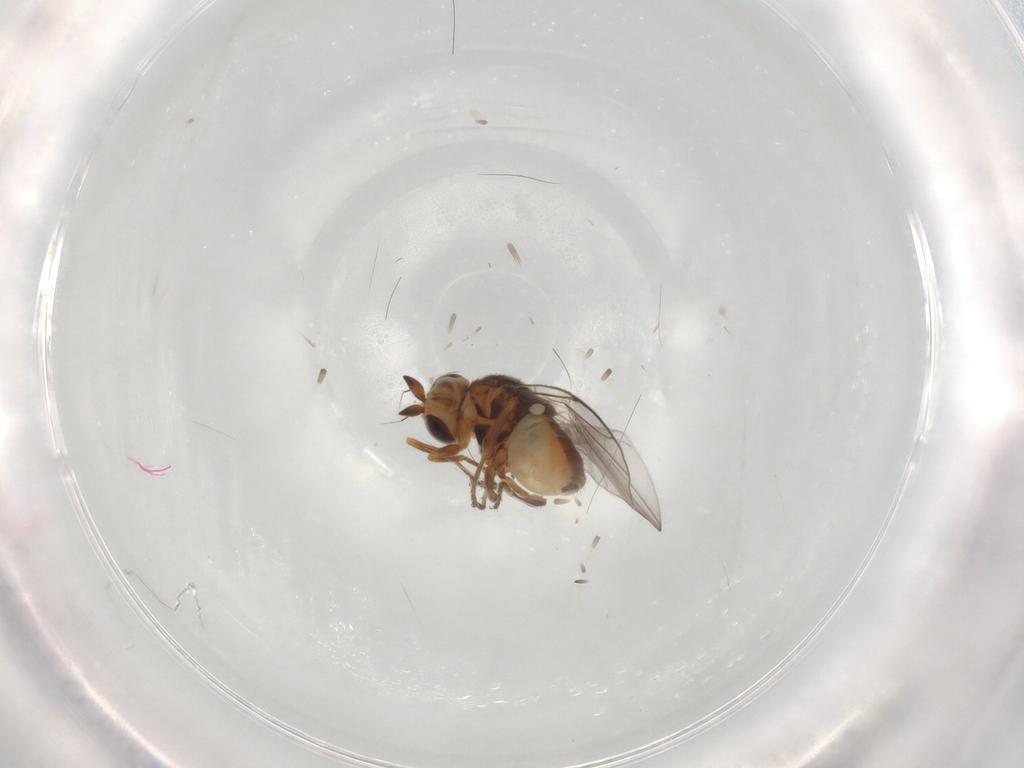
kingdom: Animalia
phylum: Arthropoda
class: Insecta
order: Diptera
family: Chloropidae
